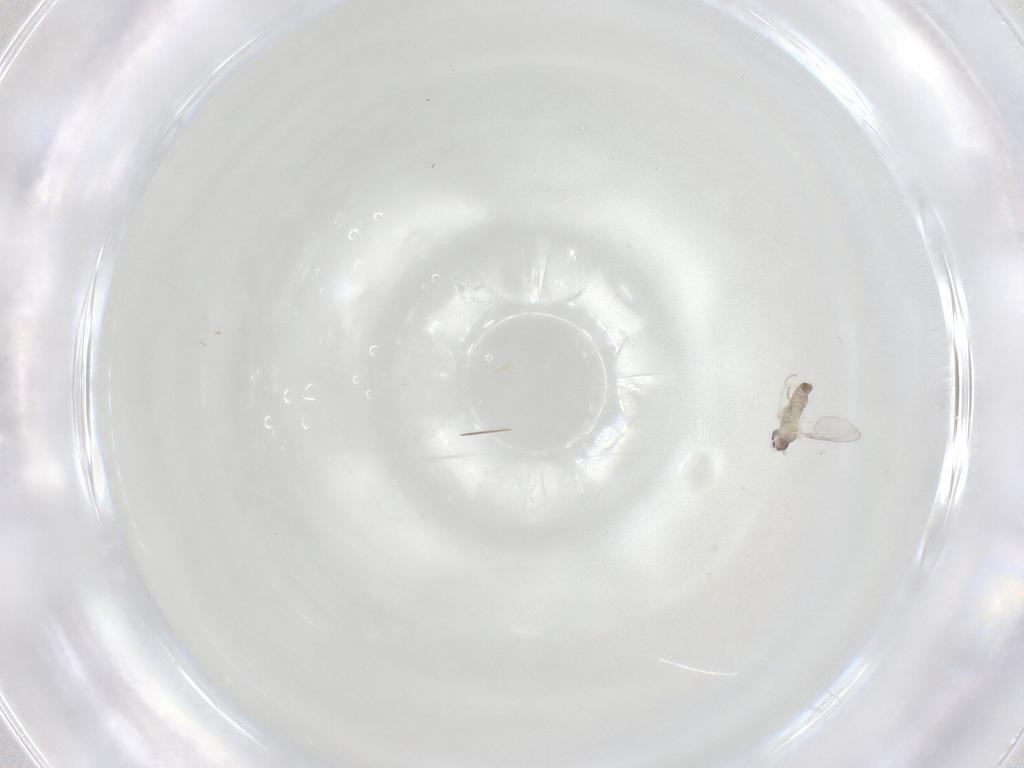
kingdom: Animalia
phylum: Arthropoda
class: Insecta
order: Diptera
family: Cecidomyiidae
